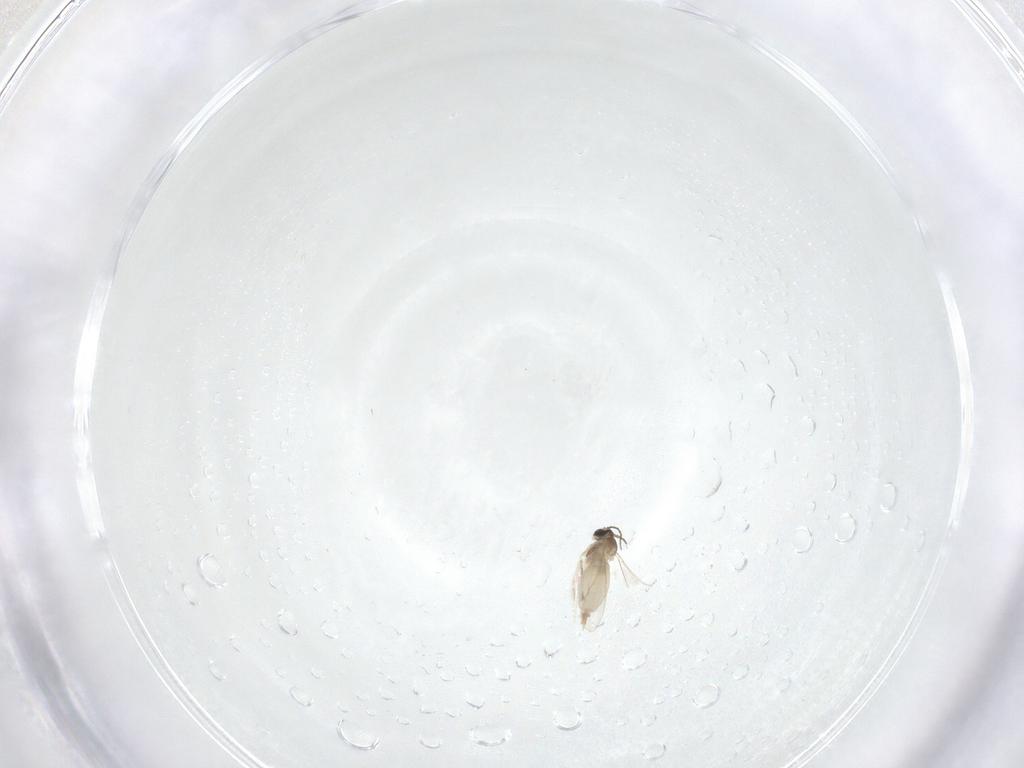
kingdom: Animalia
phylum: Arthropoda
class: Insecta
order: Diptera
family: Cecidomyiidae
